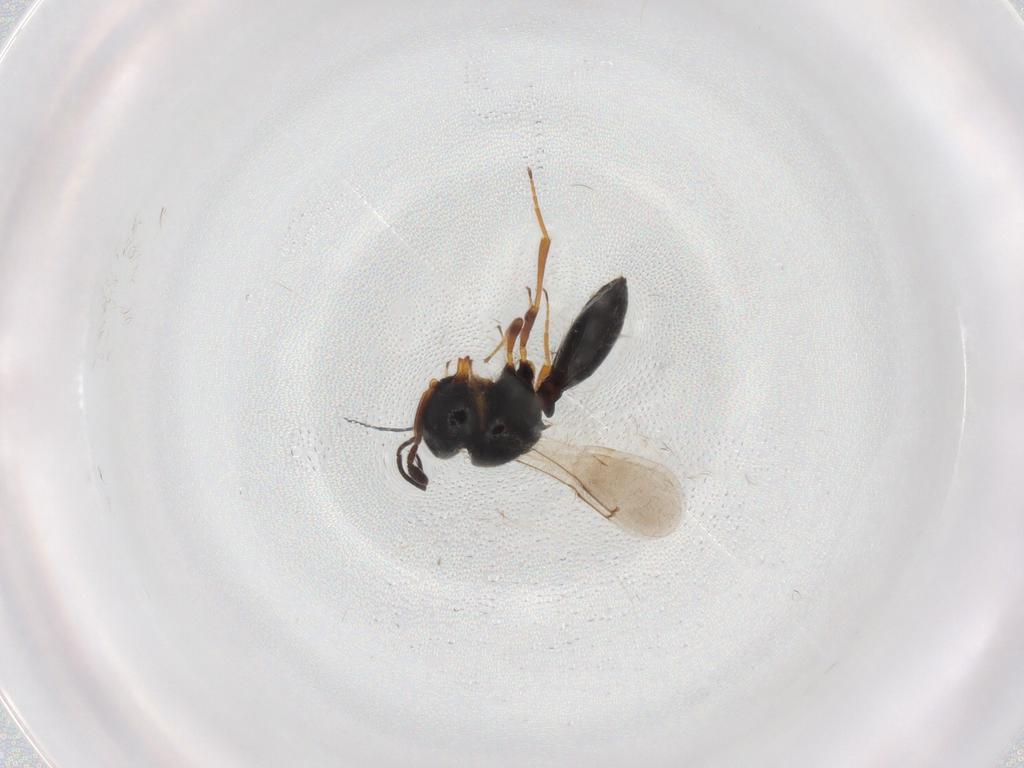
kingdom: Animalia
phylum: Arthropoda
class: Insecta
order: Hymenoptera
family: Scelionidae
